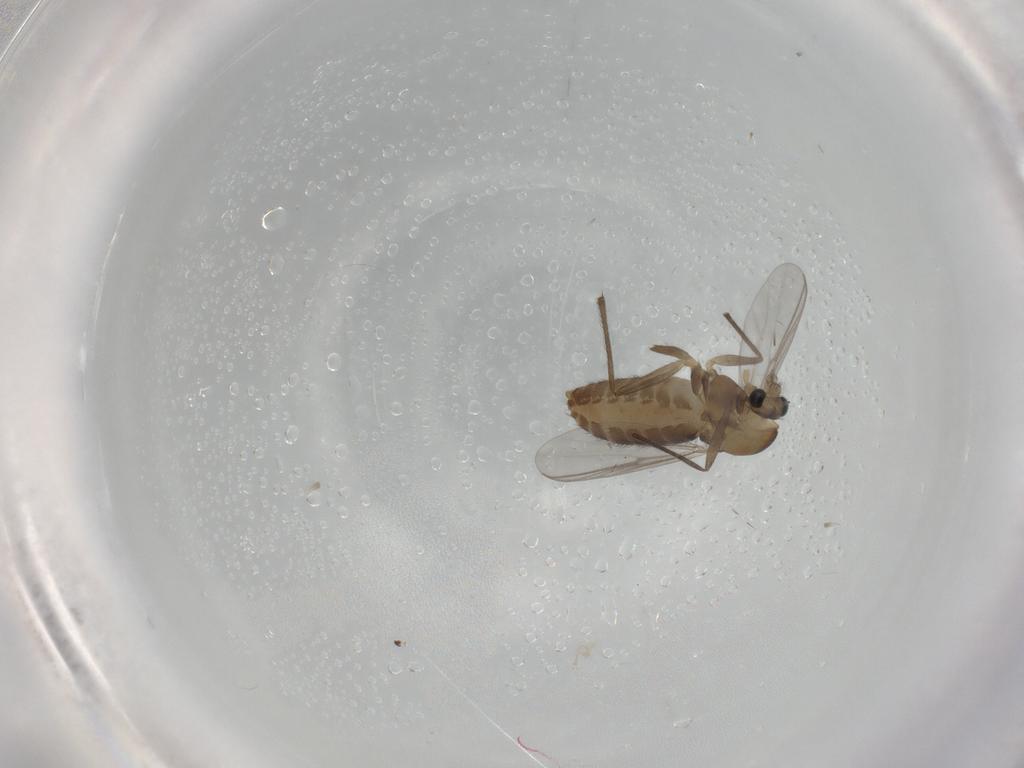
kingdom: Animalia
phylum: Arthropoda
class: Insecta
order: Diptera
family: Chironomidae
